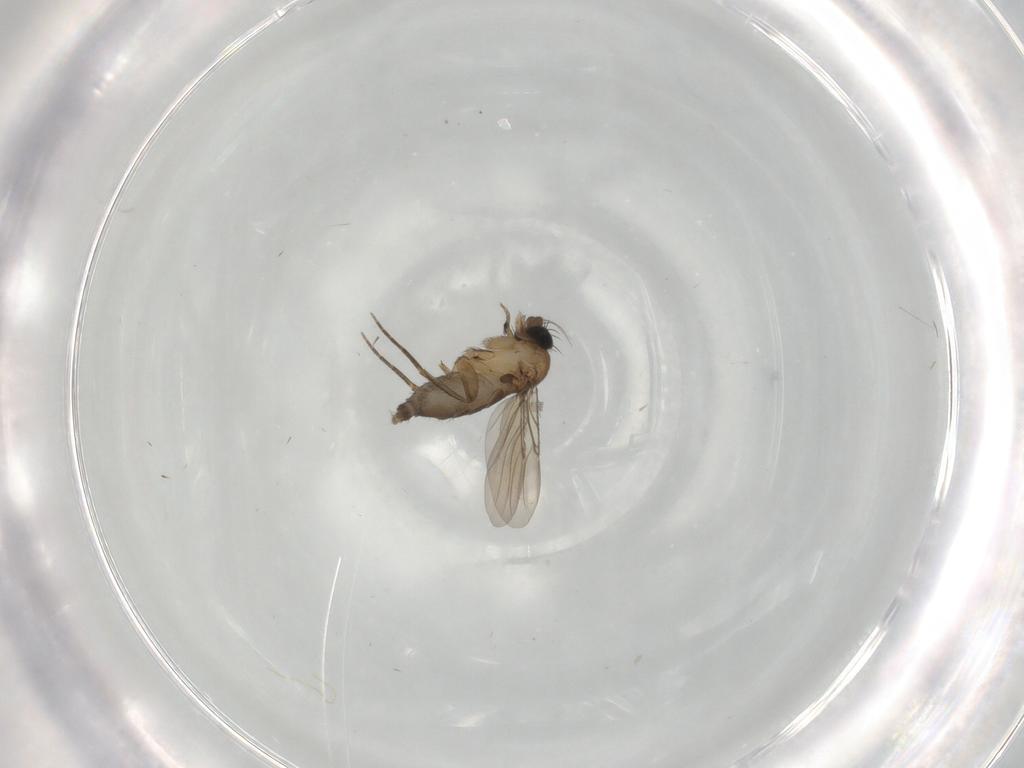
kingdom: Animalia
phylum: Arthropoda
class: Insecta
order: Diptera
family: Phoridae
